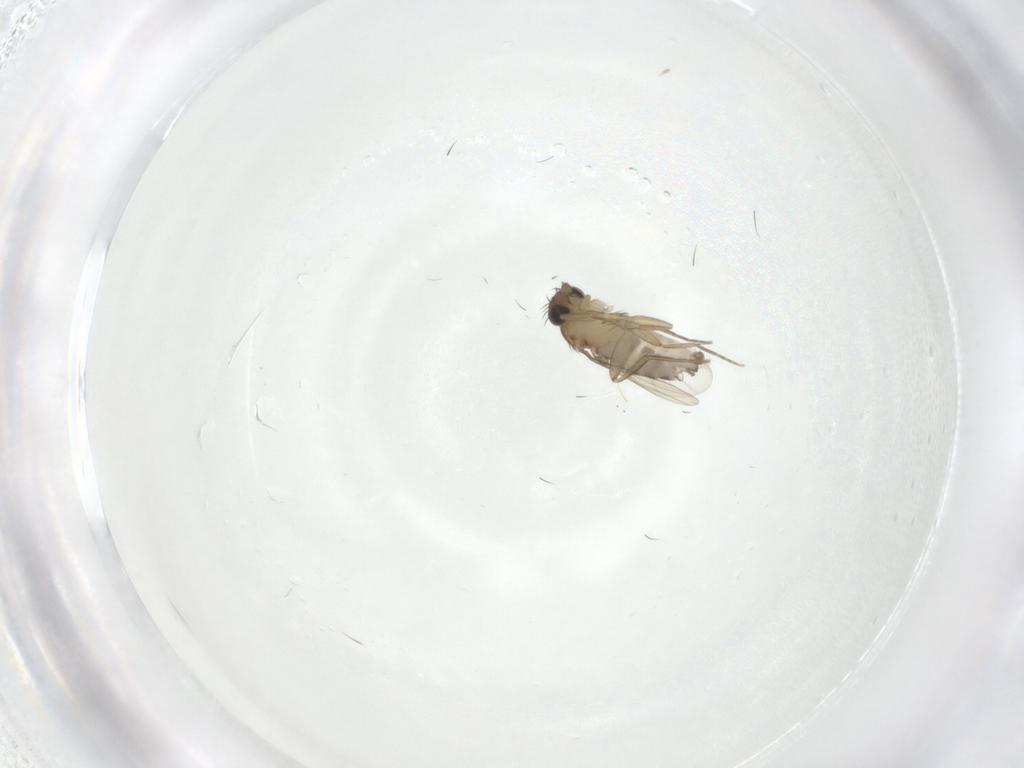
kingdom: Animalia
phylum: Arthropoda
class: Insecta
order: Diptera
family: Phoridae
